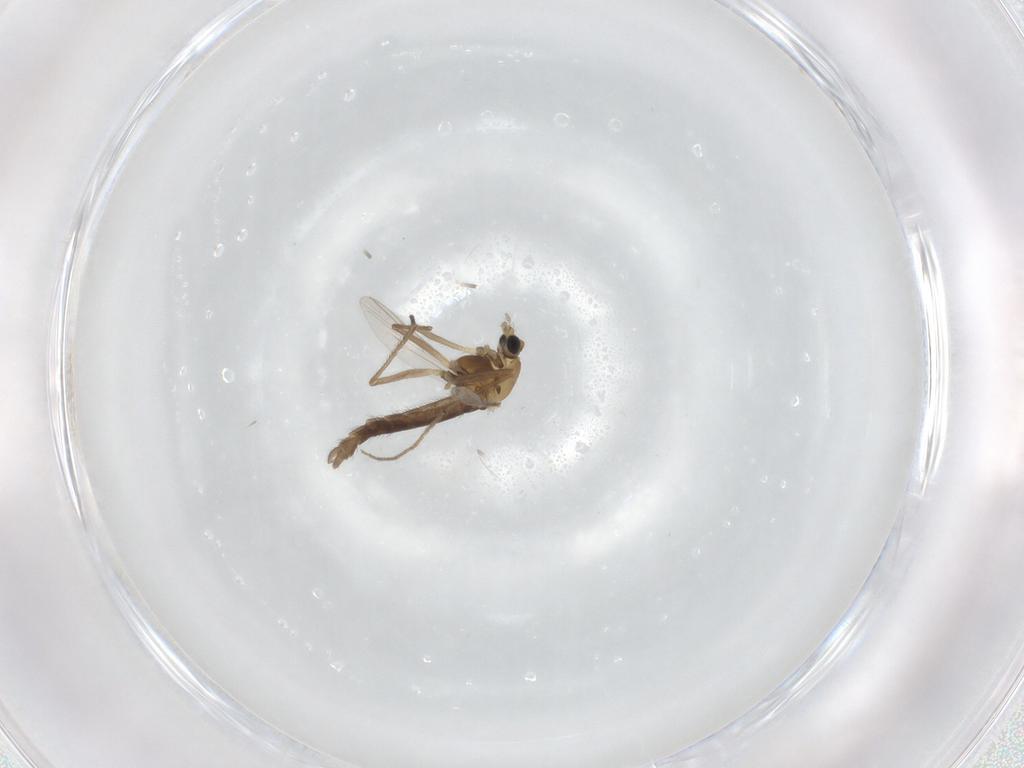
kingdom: Animalia
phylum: Arthropoda
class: Insecta
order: Diptera
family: Chironomidae
